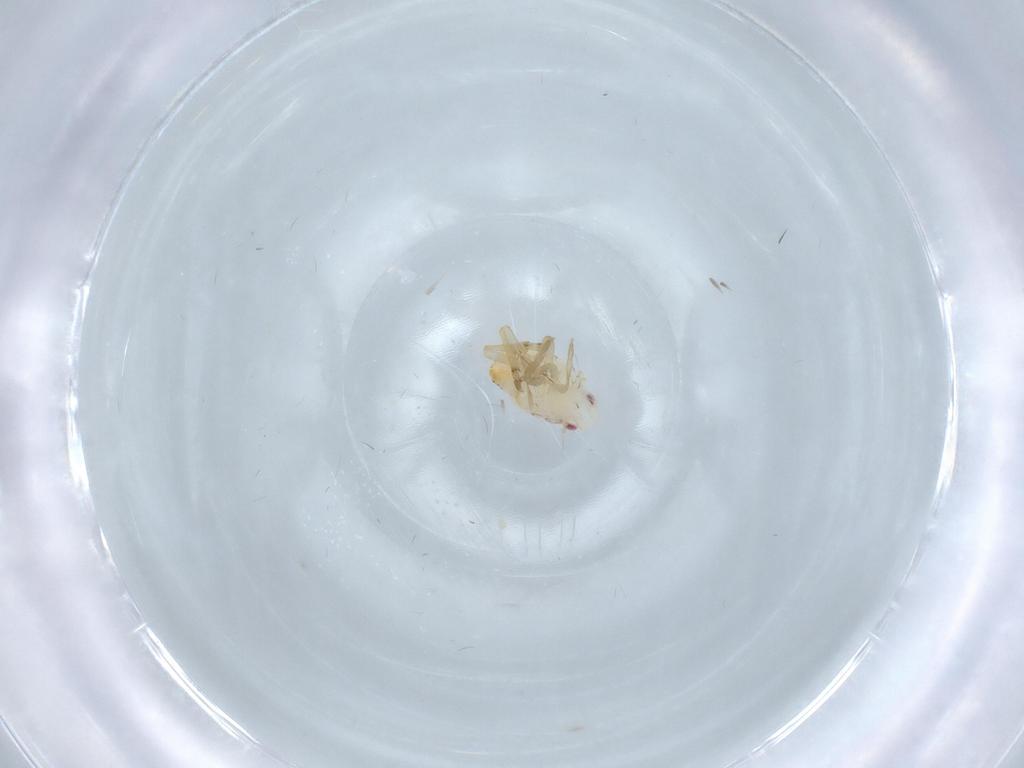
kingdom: Animalia
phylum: Arthropoda
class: Insecta
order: Hemiptera
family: Flatidae
